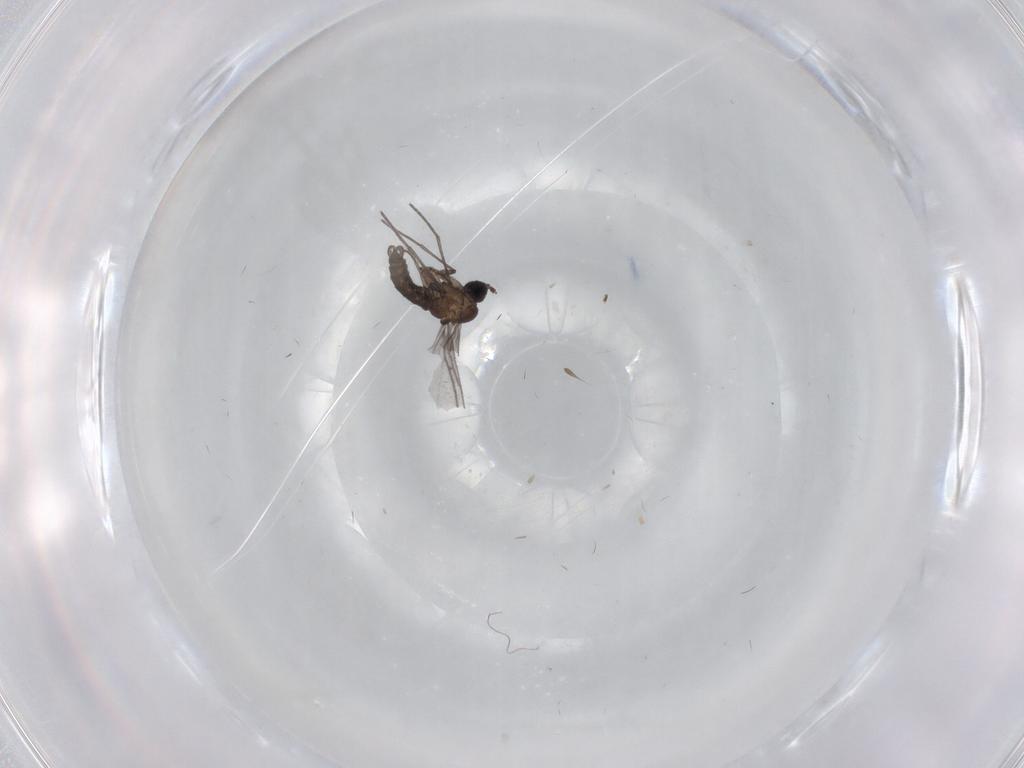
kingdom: Animalia
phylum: Arthropoda
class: Insecta
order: Diptera
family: Sciaridae
